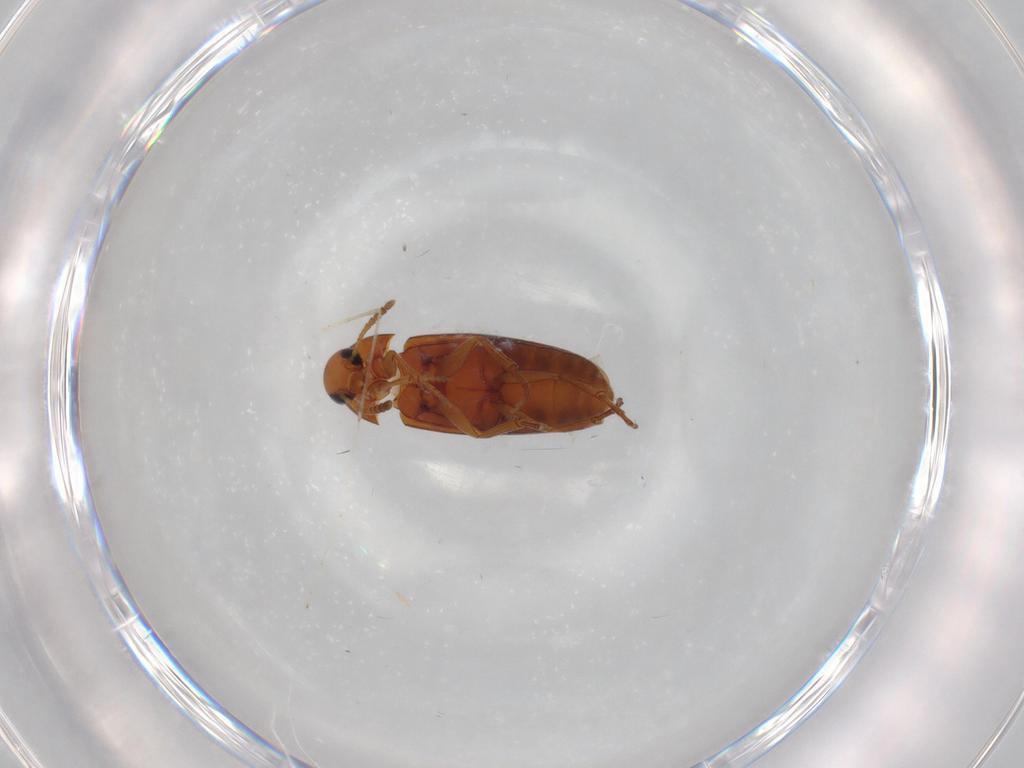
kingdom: Animalia
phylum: Arthropoda
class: Insecta
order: Coleoptera
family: Scraptiidae
